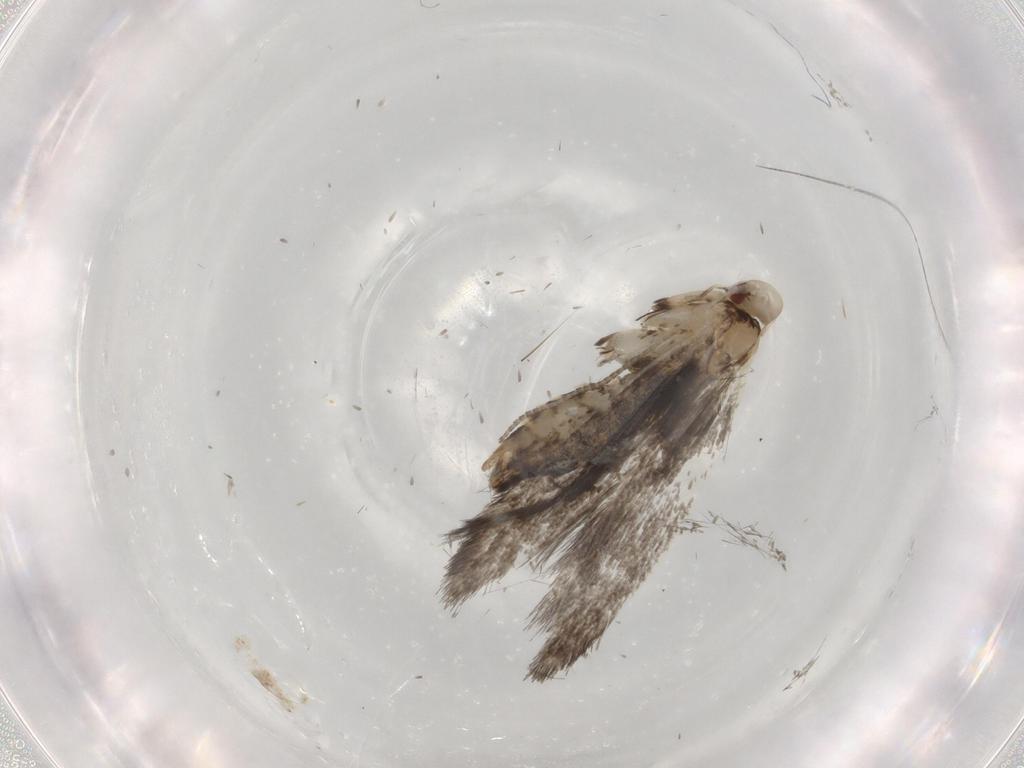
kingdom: Animalia
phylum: Arthropoda
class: Insecta
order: Lepidoptera
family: Gracillariidae
